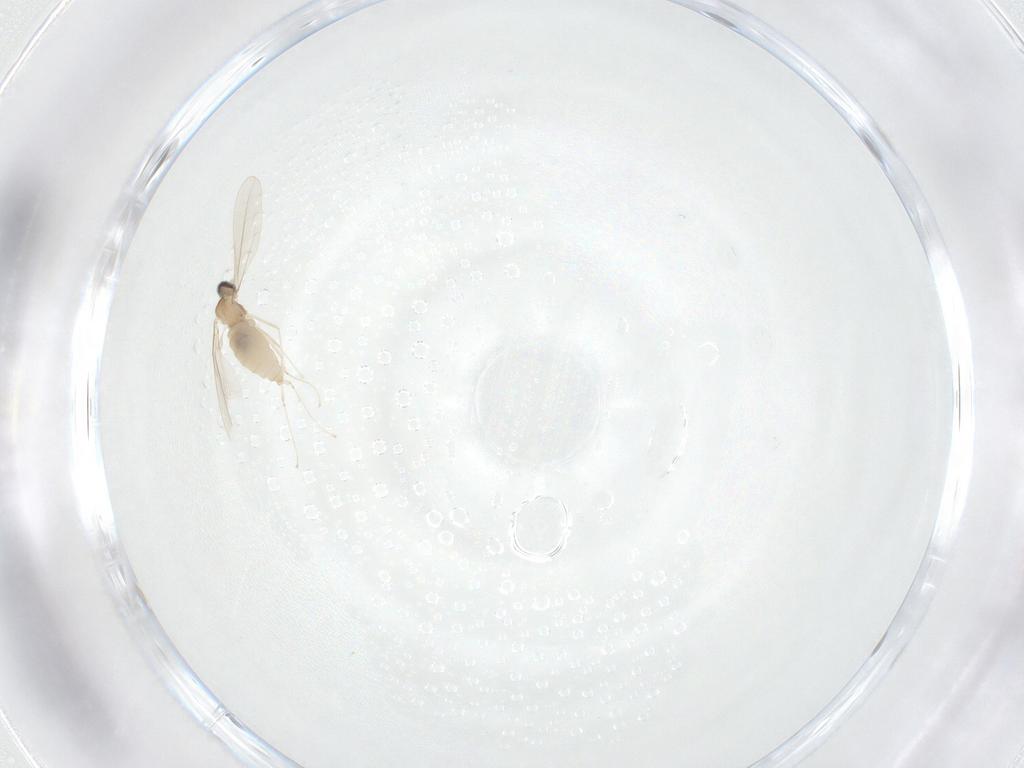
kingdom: Animalia
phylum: Arthropoda
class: Insecta
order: Diptera
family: Cecidomyiidae
